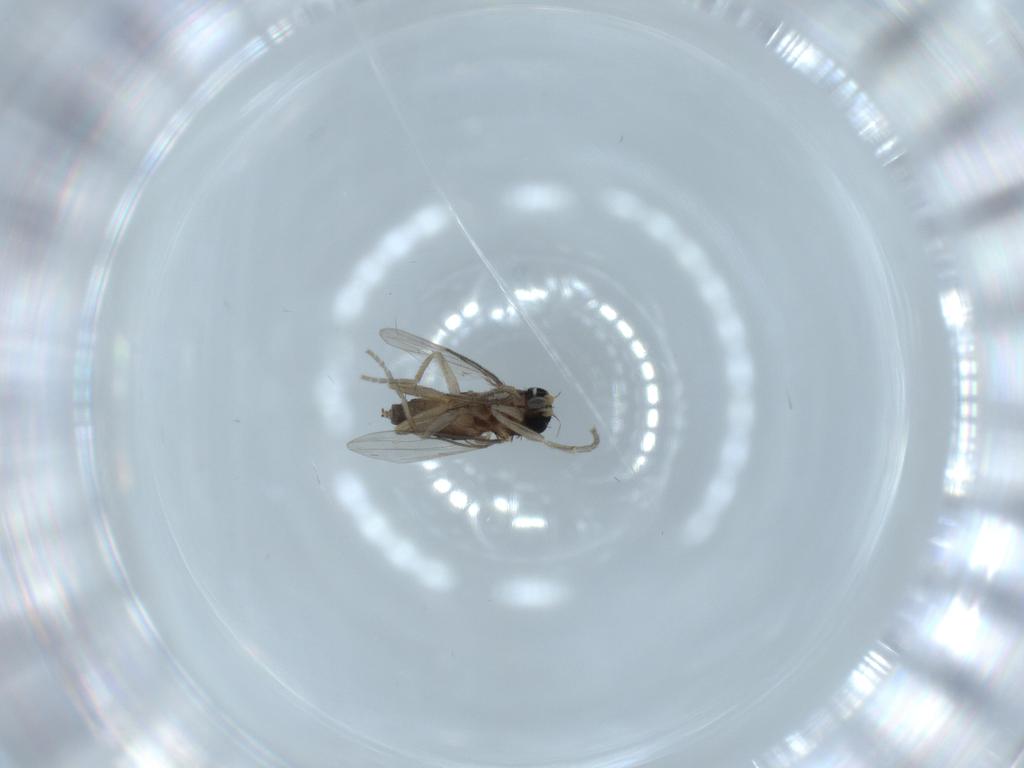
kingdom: Animalia
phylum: Arthropoda
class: Insecta
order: Diptera
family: Phoridae
